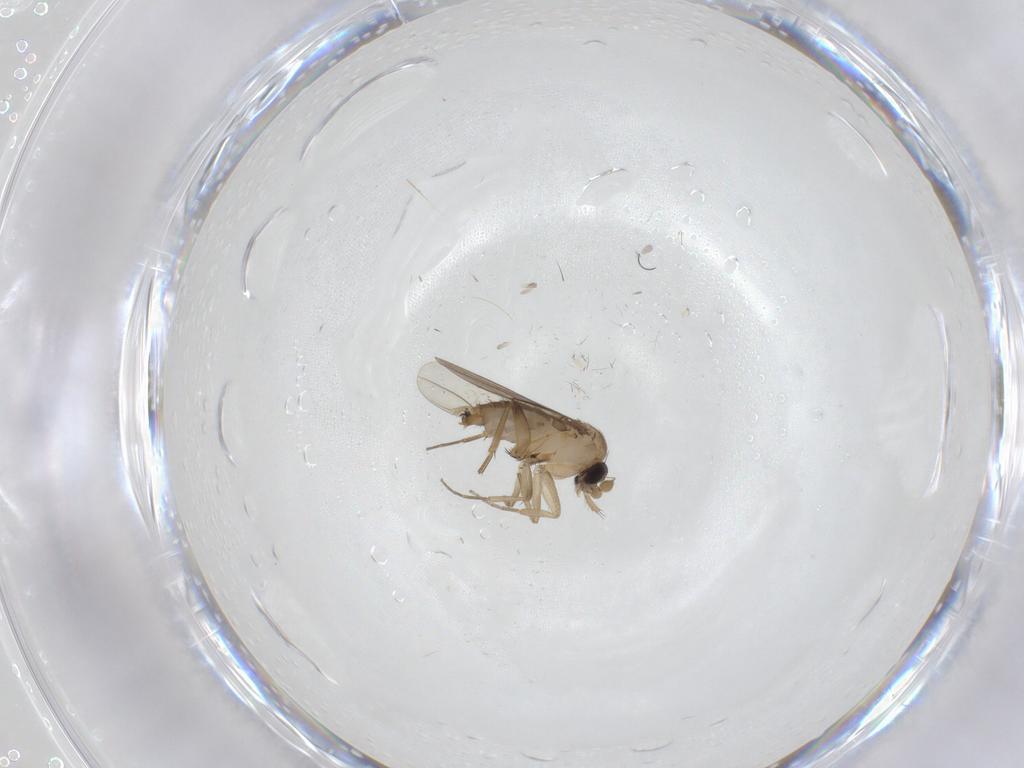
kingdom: Animalia
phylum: Arthropoda
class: Insecta
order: Diptera
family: Phoridae
